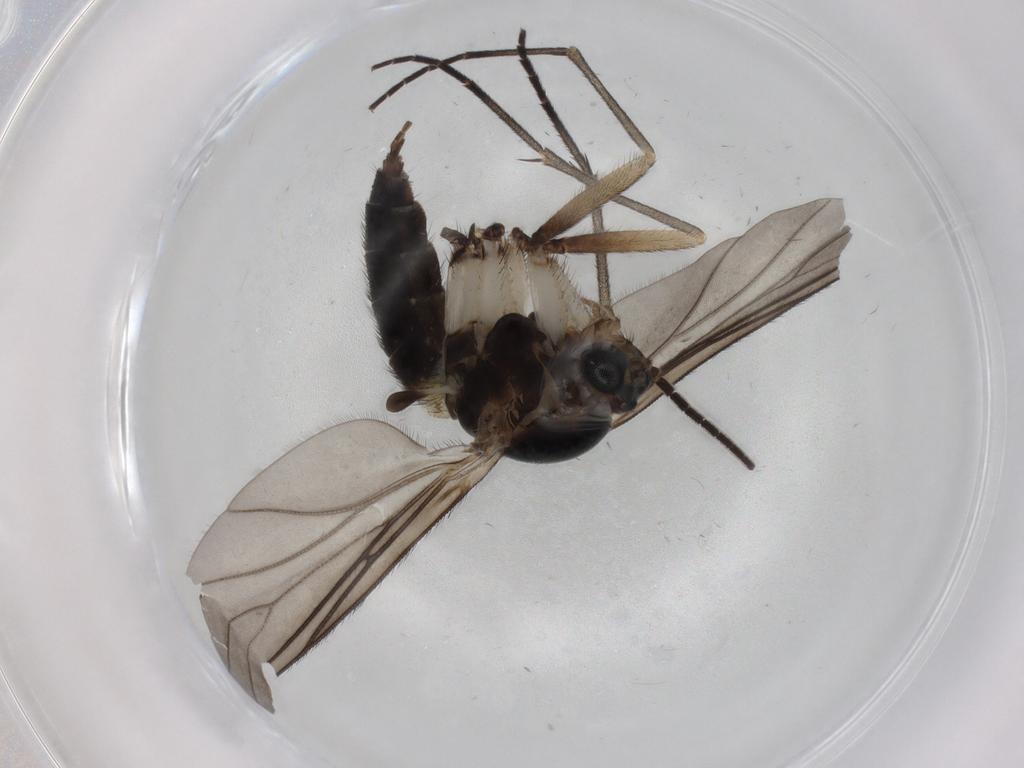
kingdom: Animalia
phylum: Arthropoda
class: Insecta
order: Diptera
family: Sciaridae
